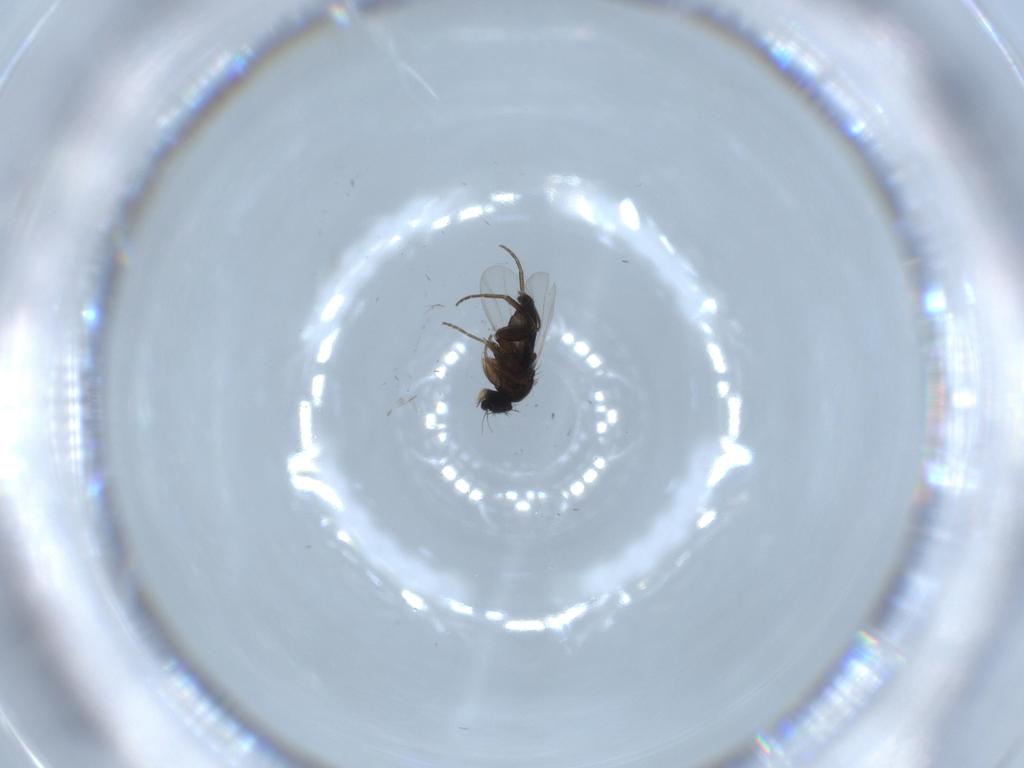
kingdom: Animalia
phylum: Arthropoda
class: Insecta
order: Diptera
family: Phoridae
